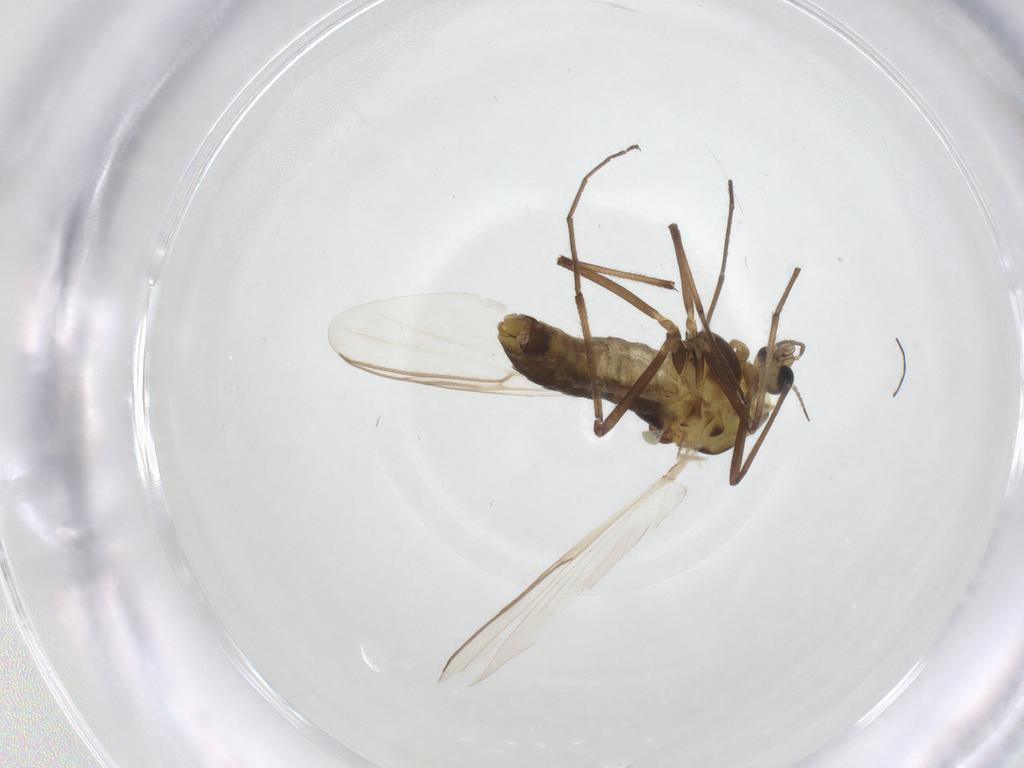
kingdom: Animalia
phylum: Arthropoda
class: Insecta
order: Diptera
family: Chironomidae
